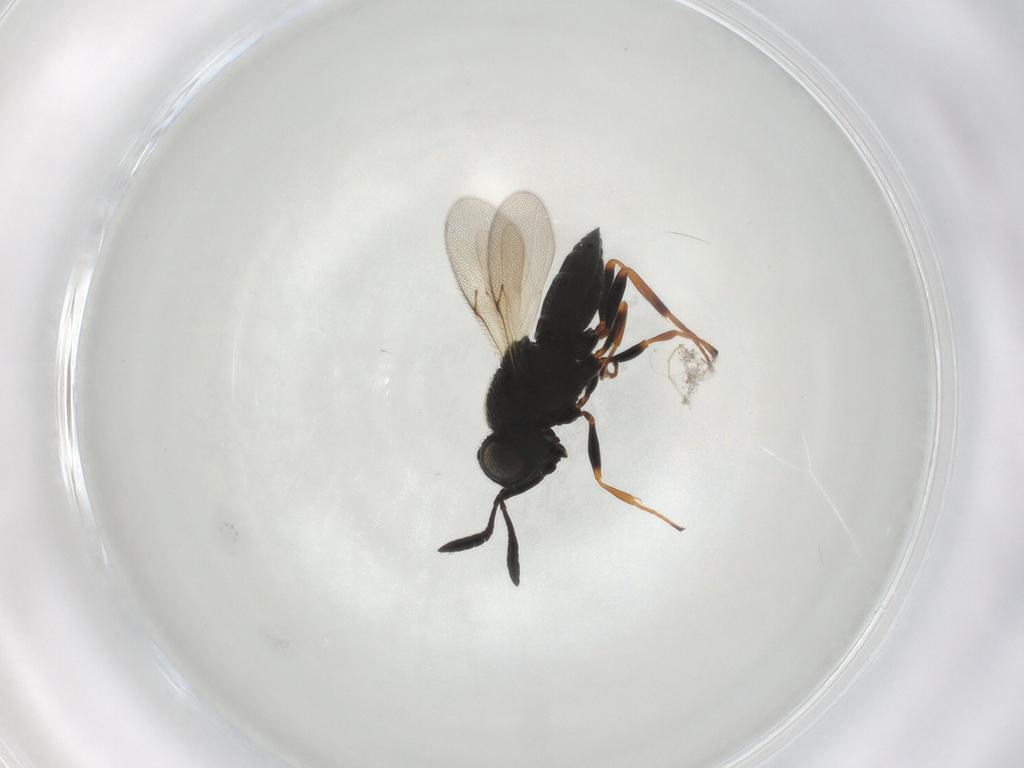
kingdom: Animalia
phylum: Arthropoda
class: Insecta
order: Hymenoptera
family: Scelionidae
